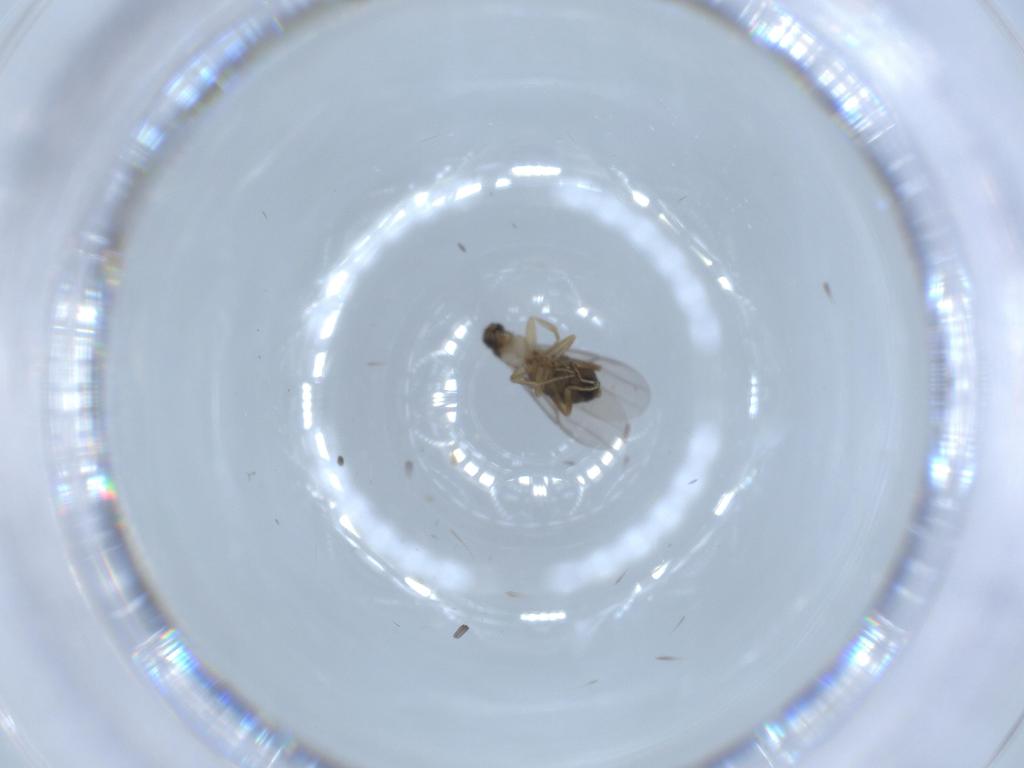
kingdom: Animalia
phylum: Arthropoda
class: Insecta
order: Diptera
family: Phoridae
